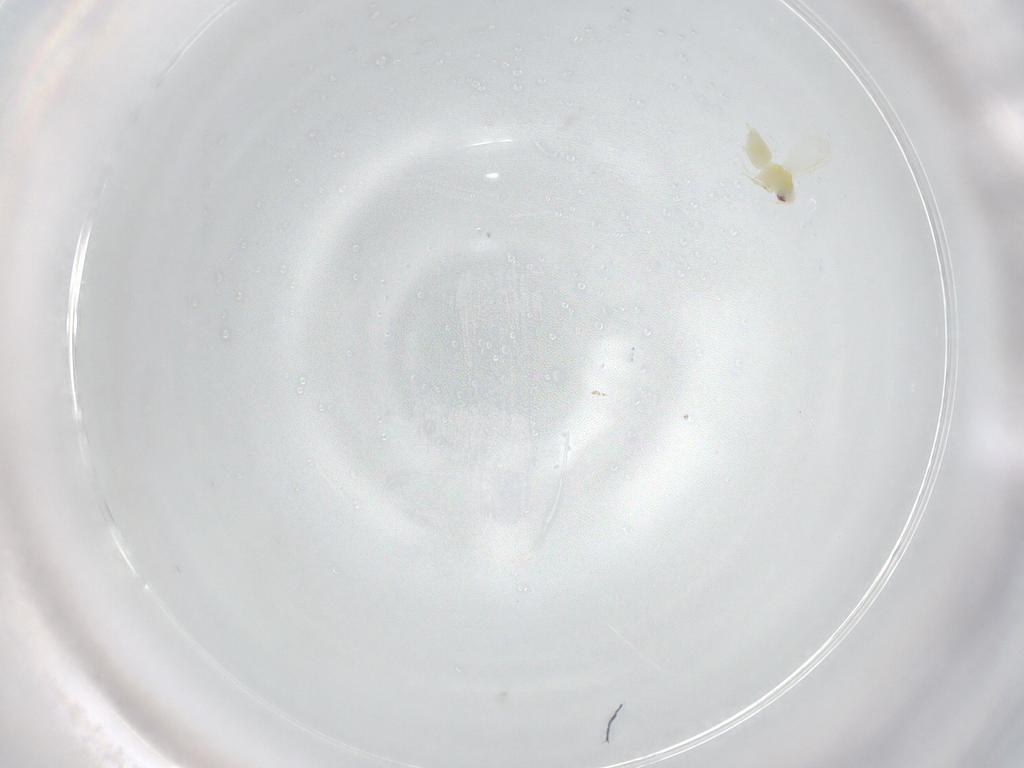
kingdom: Animalia
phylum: Arthropoda
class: Insecta
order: Hemiptera
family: Aleyrodidae
